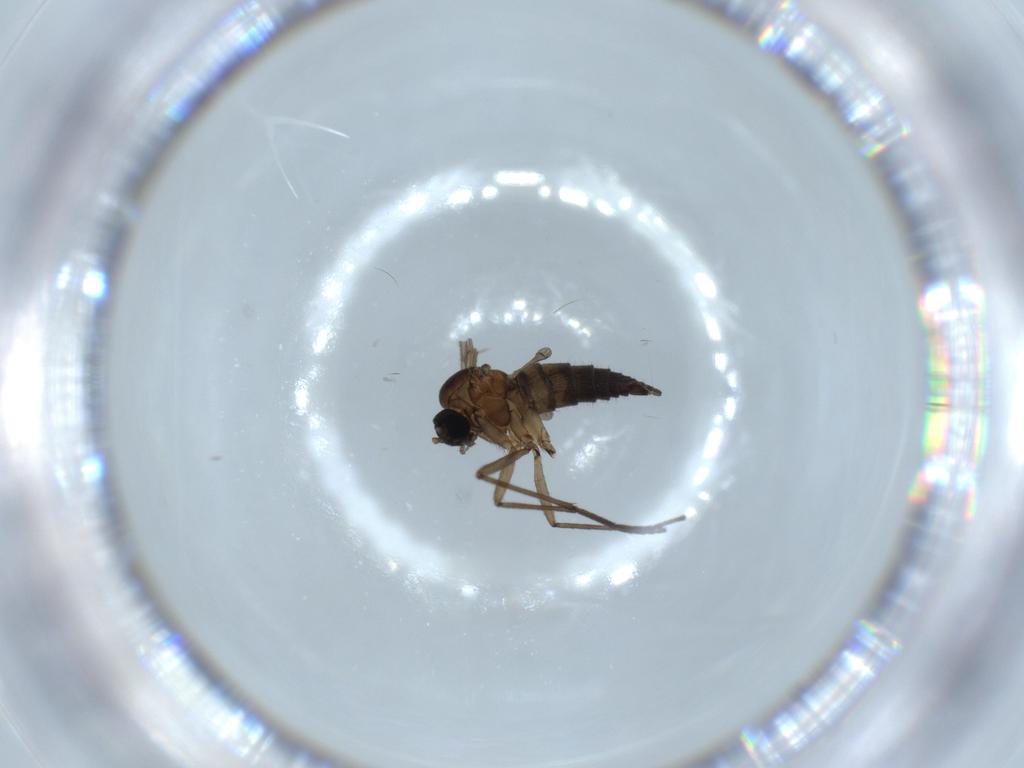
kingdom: Animalia
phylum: Arthropoda
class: Insecta
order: Diptera
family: Sciaridae
